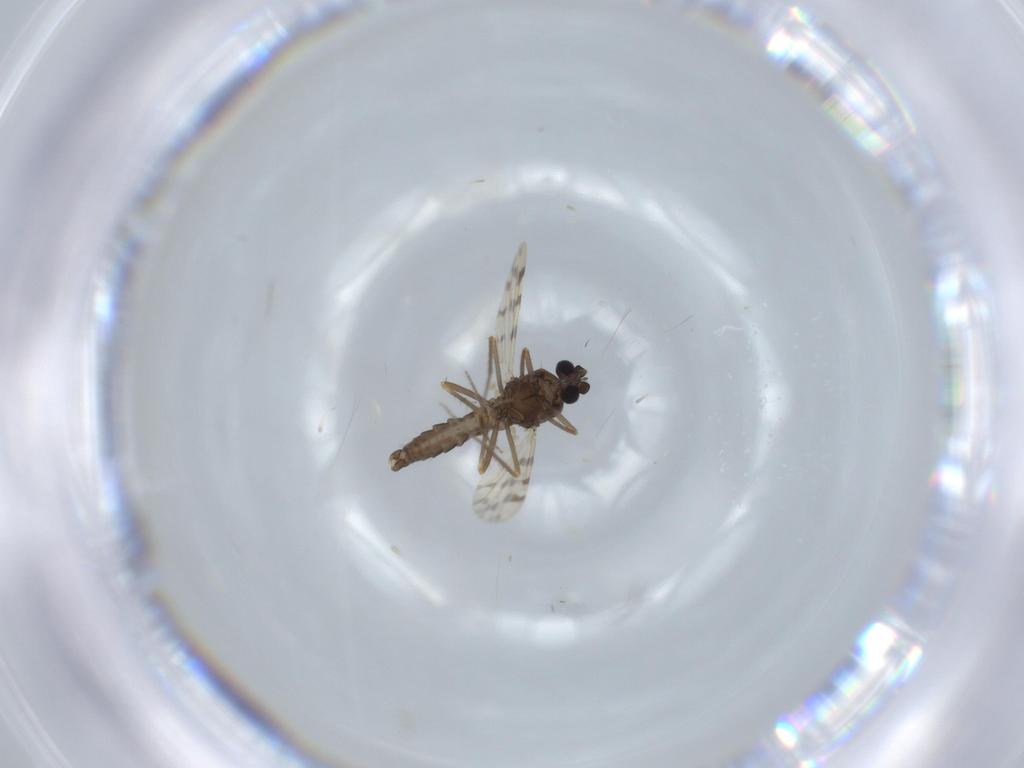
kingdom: Animalia
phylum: Arthropoda
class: Insecta
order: Diptera
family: Ceratopogonidae
